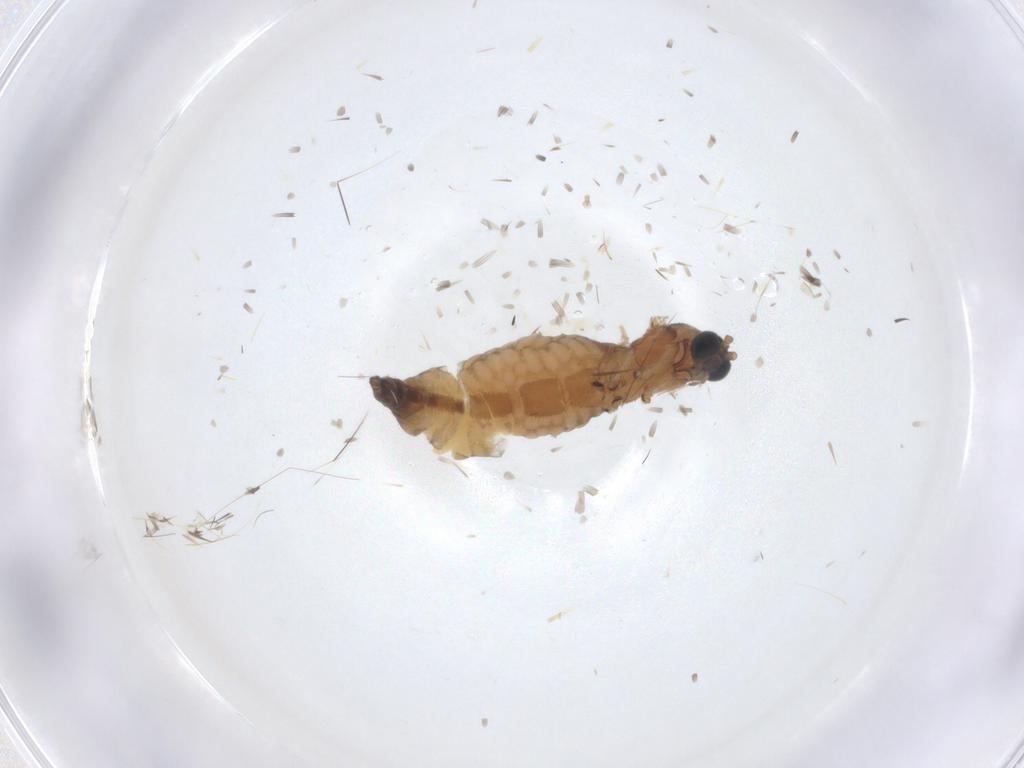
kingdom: Animalia
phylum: Arthropoda
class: Insecta
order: Diptera
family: Sciaridae
